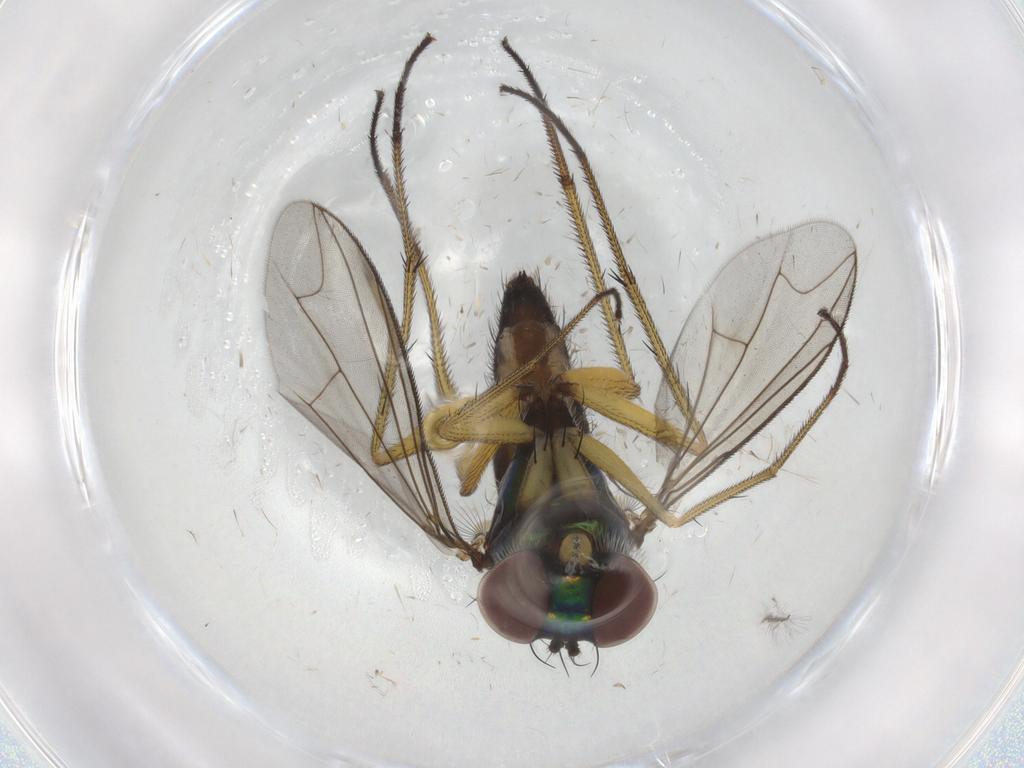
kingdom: Animalia
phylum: Arthropoda
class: Insecta
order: Diptera
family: Dolichopodidae
